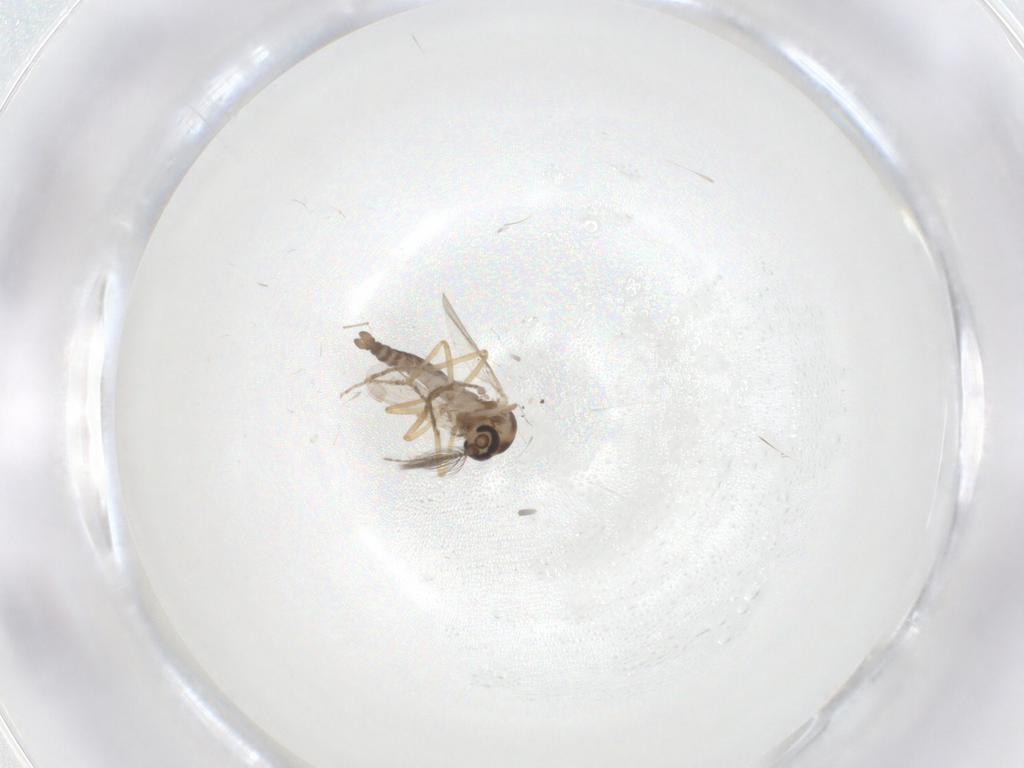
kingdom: Animalia
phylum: Arthropoda
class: Insecta
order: Diptera
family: Ceratopogonidae
